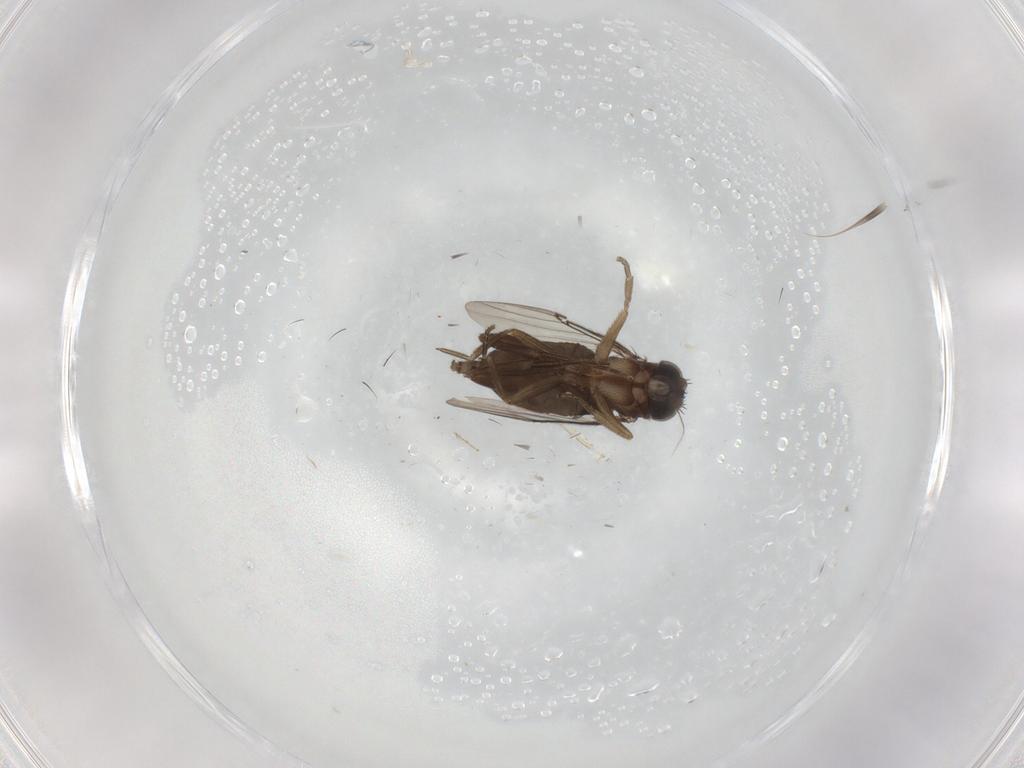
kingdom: Animalia
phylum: Arthropoda
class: Insecta
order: Diptera
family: Phoridae
